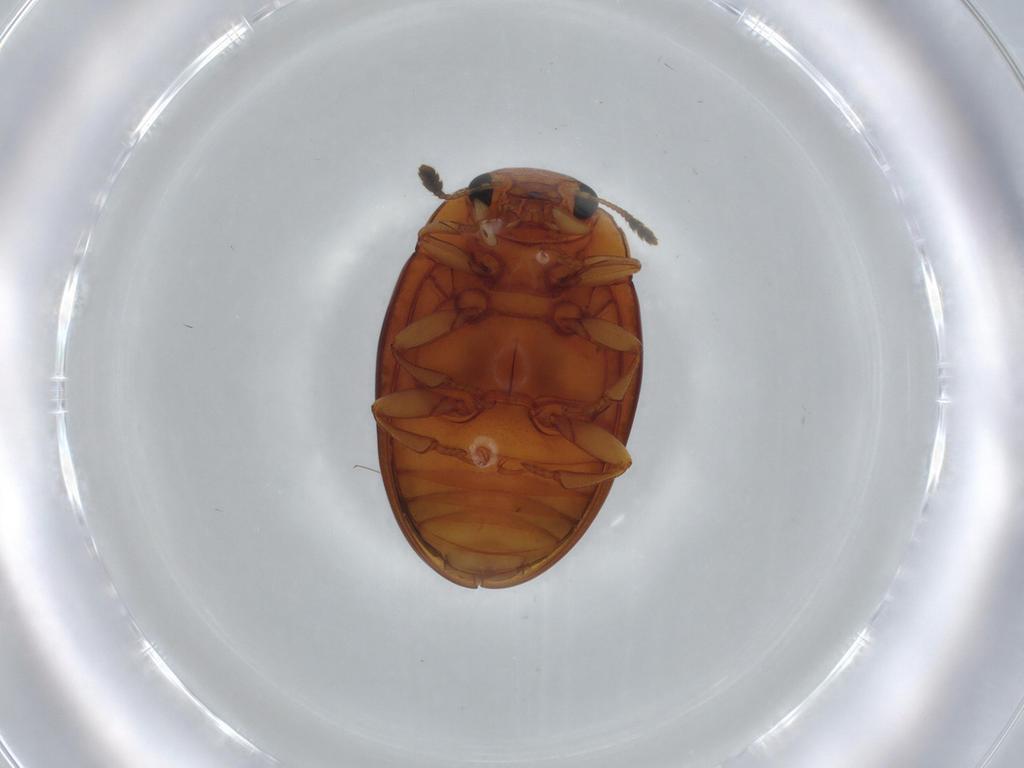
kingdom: Animalia
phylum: Arthropoda
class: Insecta
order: Coleoptera
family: Erotylidae
